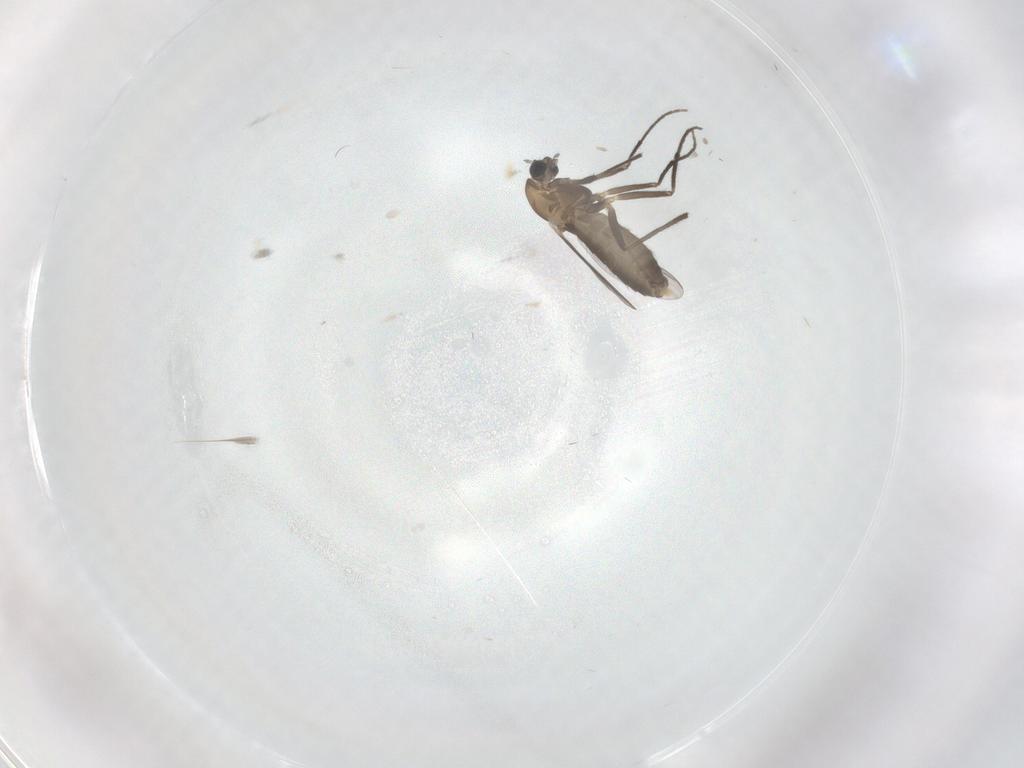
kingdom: Animalia
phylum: Arthropoda
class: Insecta
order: Diptera
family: Chironomidae
